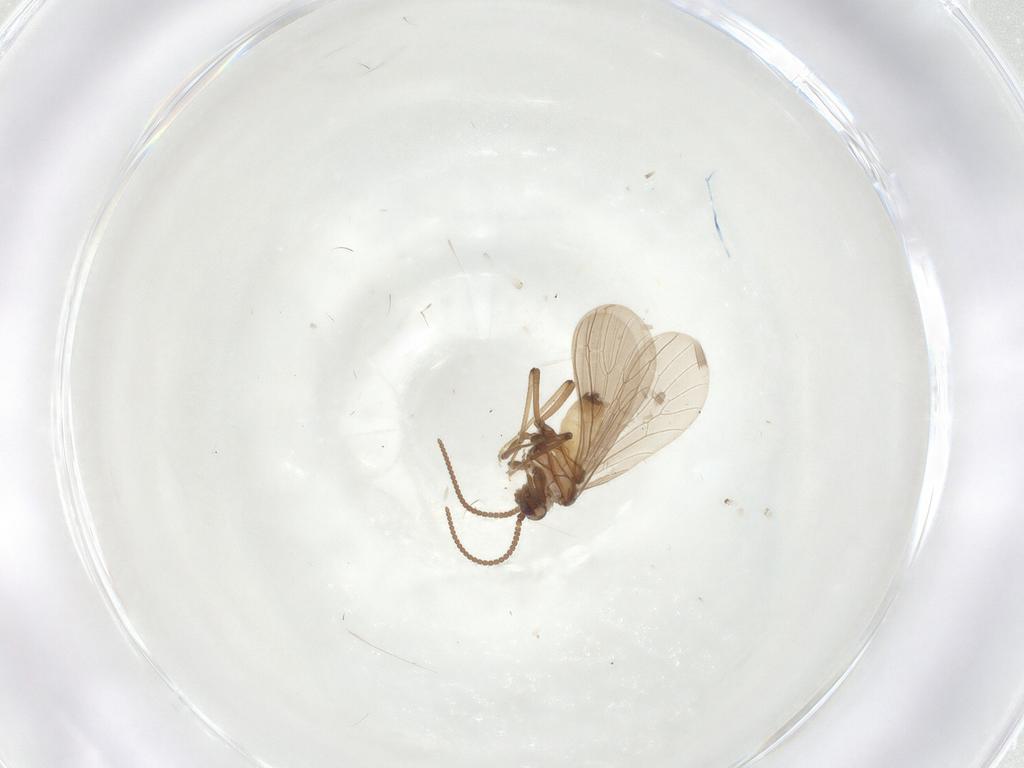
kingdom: Animalia
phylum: Arthropoda
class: Insecta
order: Neuroptera
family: Coniopterygidae
